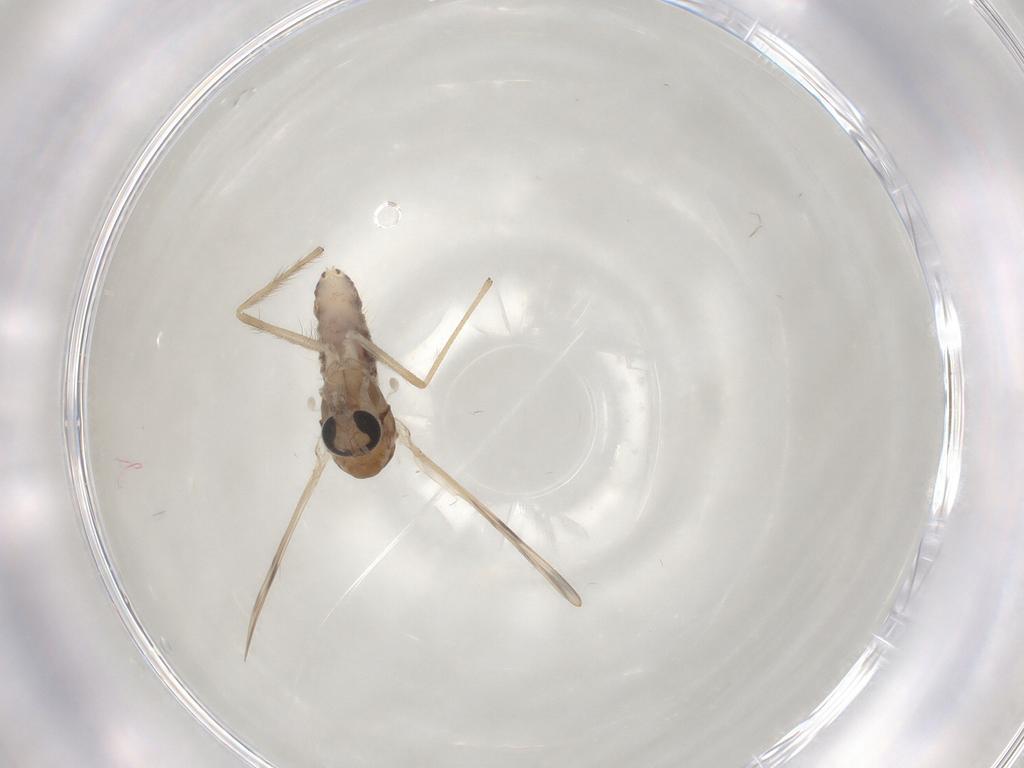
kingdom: Animalia
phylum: Arthropoda
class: Insecta
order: Diptera
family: Chironomidae
